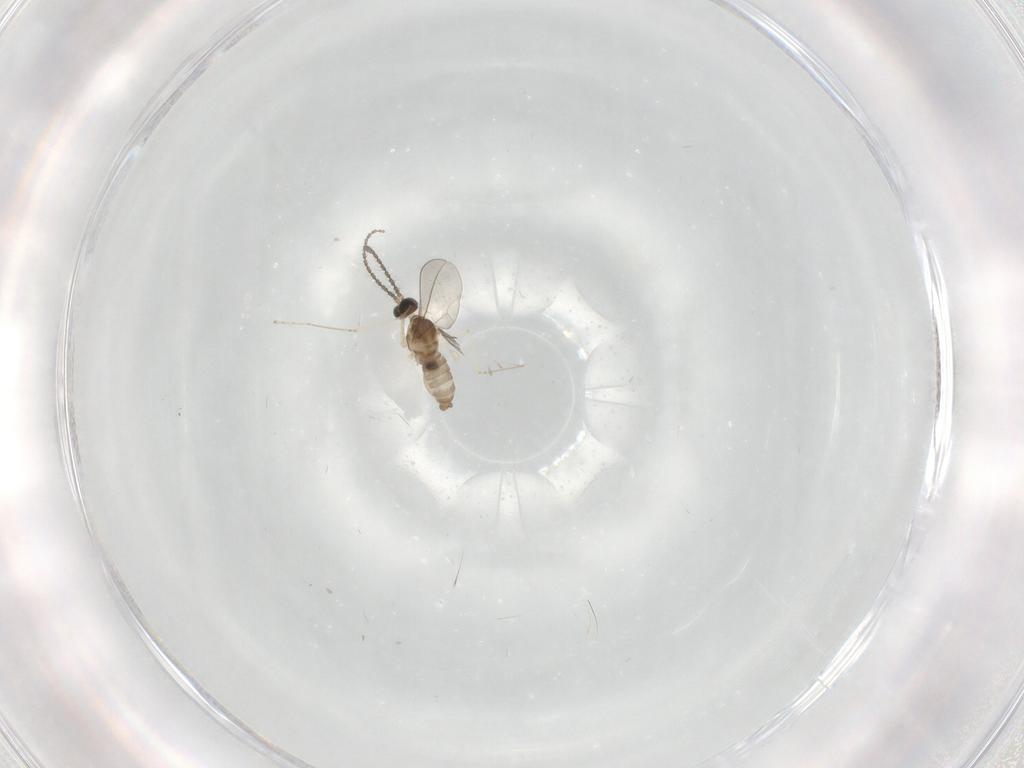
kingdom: Animalia
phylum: Arthropoda
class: Insecta
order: Diptera
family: Cecidomyiidae
